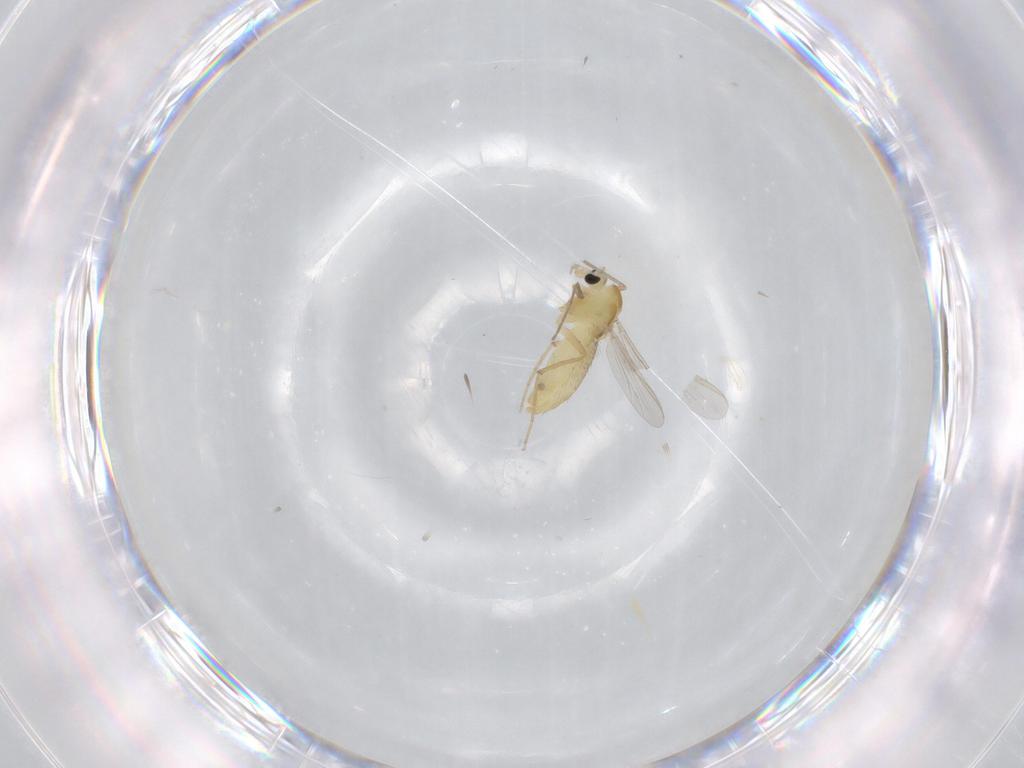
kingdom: Animalia
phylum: Arthropoda
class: Insecta
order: Diptera
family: Chironomidae
